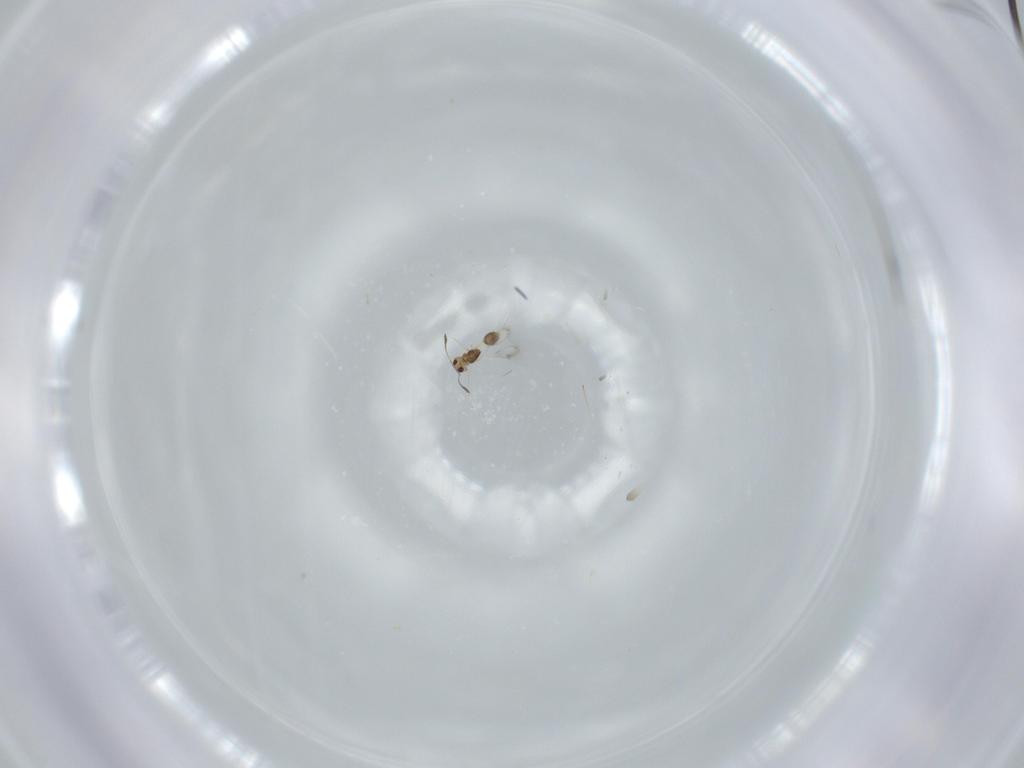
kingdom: Animalia
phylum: Arthropoda
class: Insecta
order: Hymenoptera
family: Mymarommatidae
